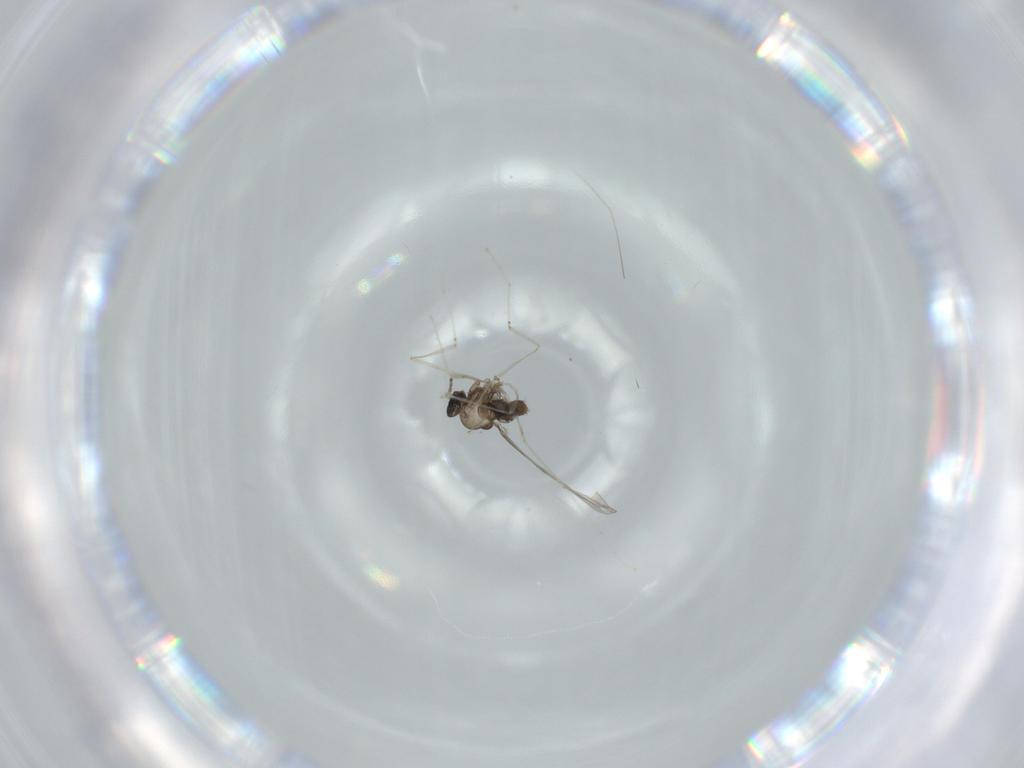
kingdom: Animalia
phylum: Arthropoda
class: Insecta
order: Diptera
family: Cecidomyiidae
